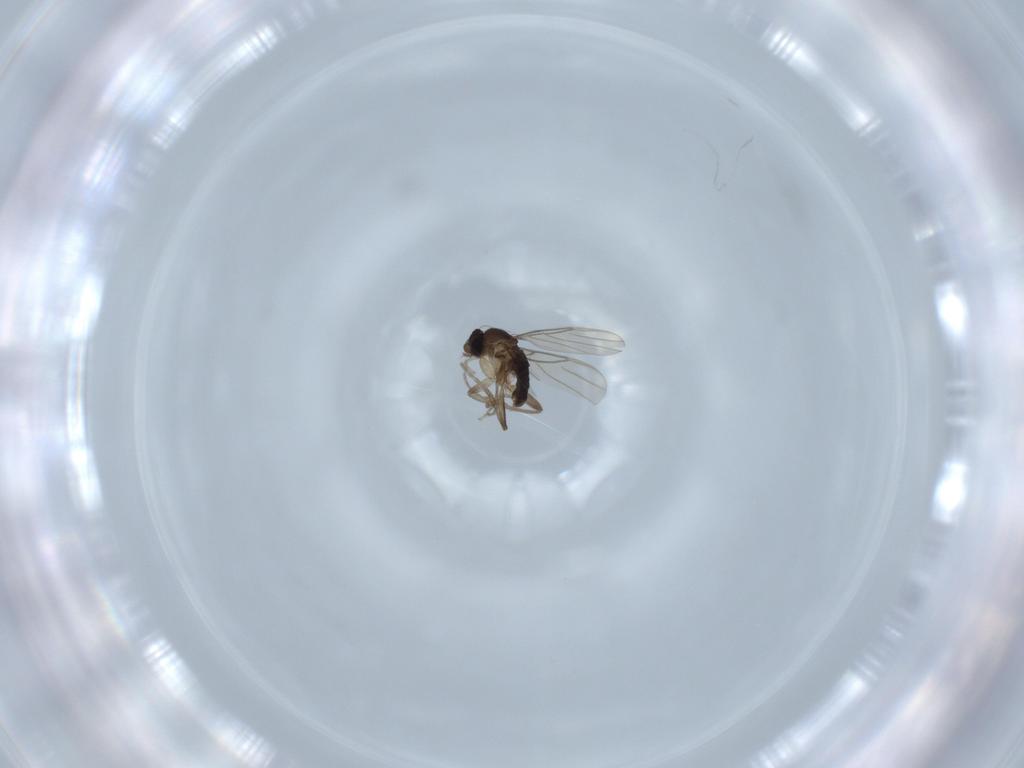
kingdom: Animalia
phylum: Arthropoda
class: Insecta
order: Diptera
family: Phoridae
